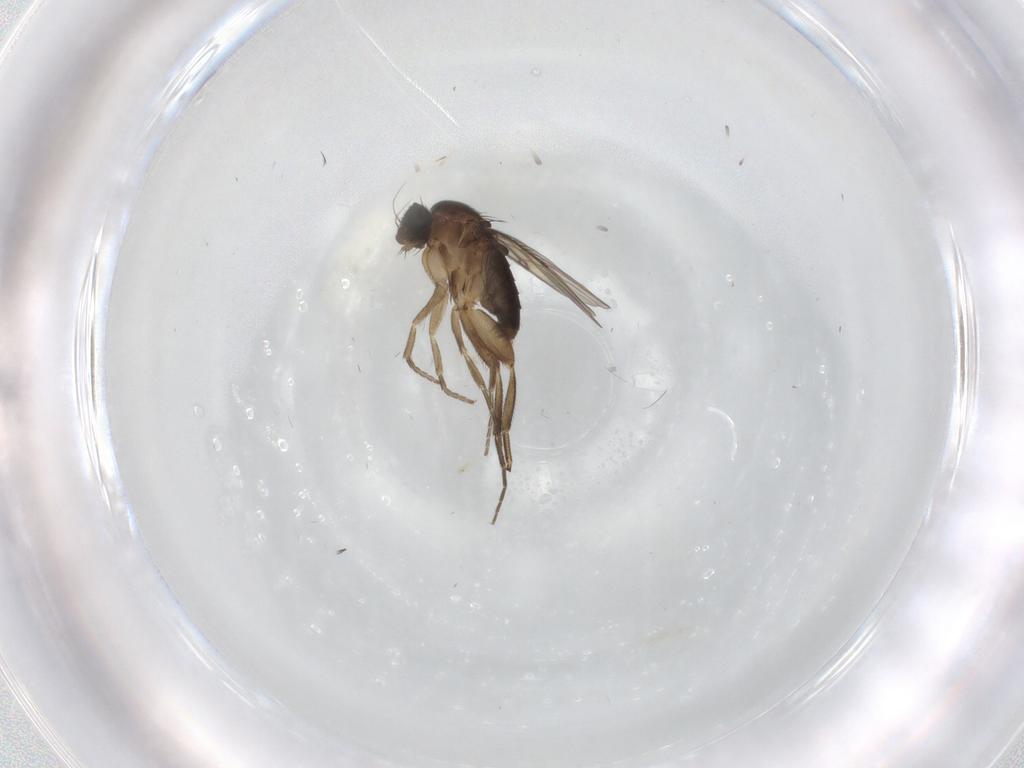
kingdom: Animalia
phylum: Arthropoda
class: Insecta
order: Diptera
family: Phoridae
